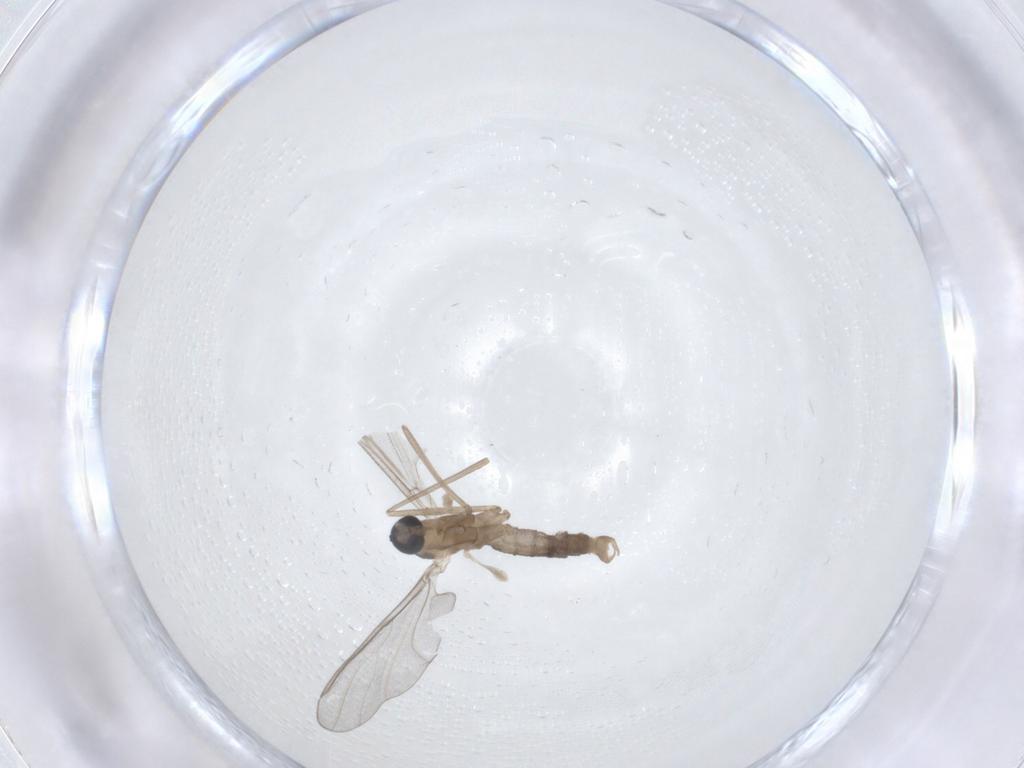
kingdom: Animalia
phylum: Arthropoda
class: Insecta
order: Diptera
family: Cecidomyiidae
